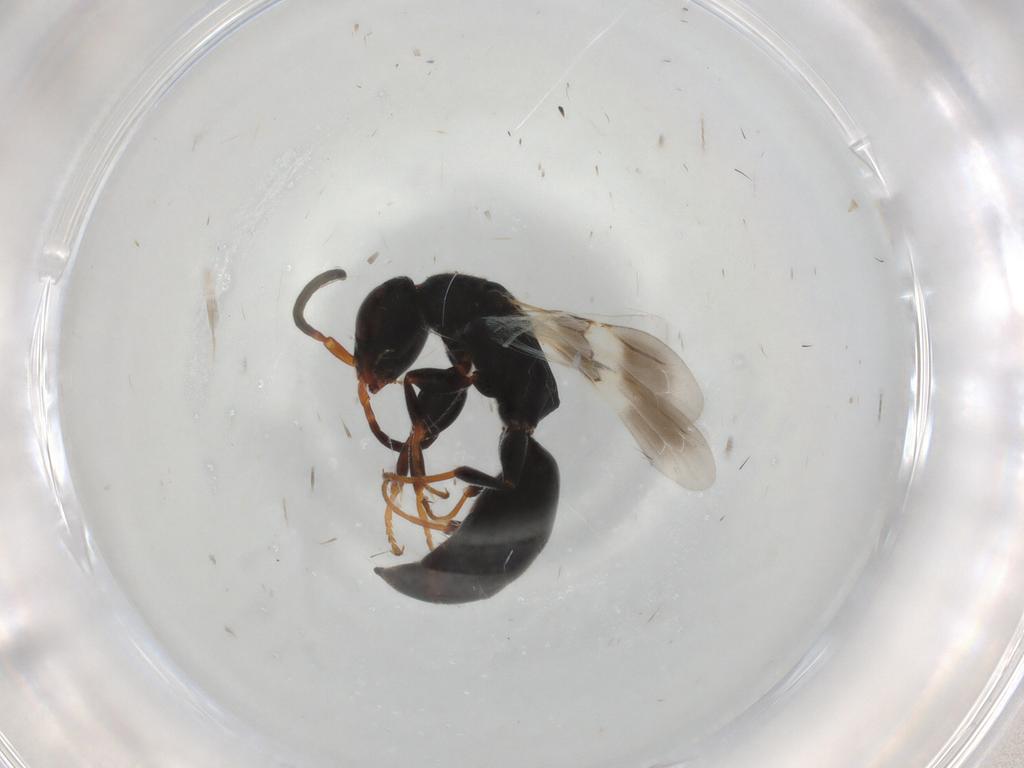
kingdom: Animalia
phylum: Arthropoda
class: Insecta
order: Hymenoptera
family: Bethylidae
